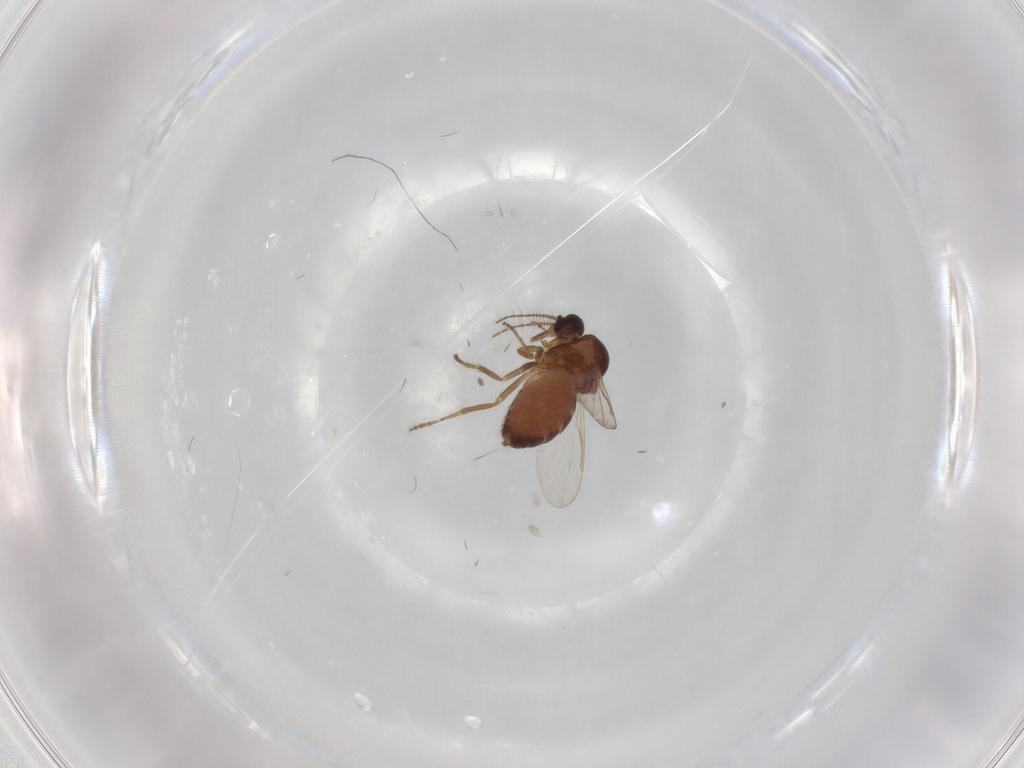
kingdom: Animalia
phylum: Arthropoda
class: Insecta
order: Diptera
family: Ceratopogonidae
